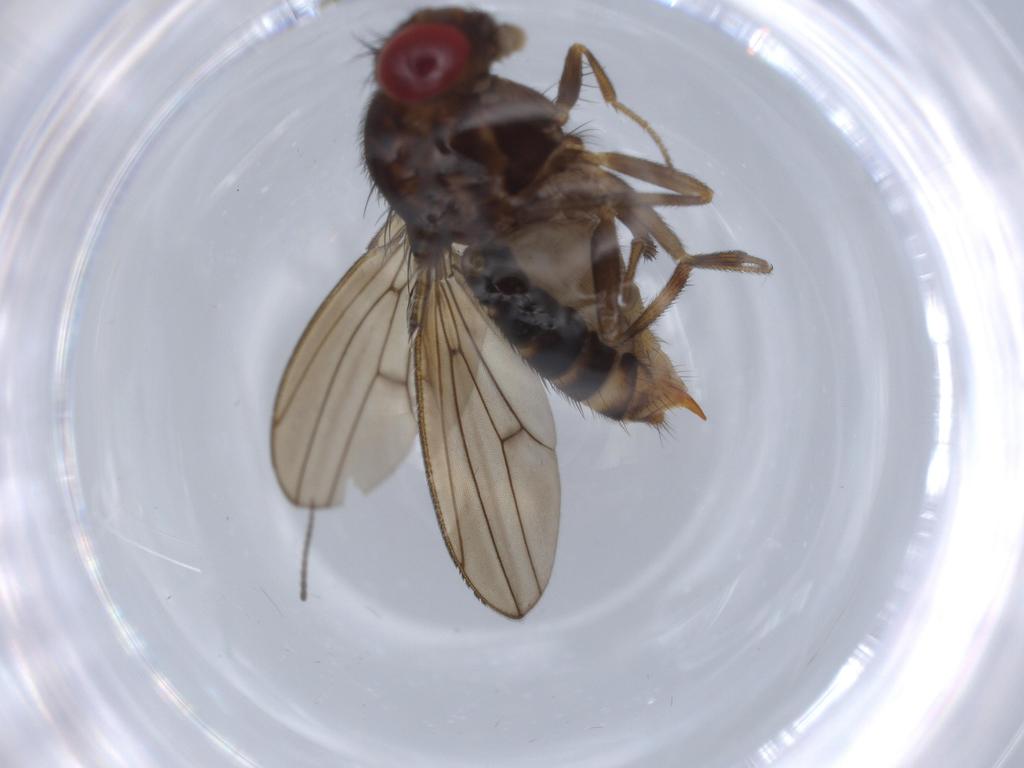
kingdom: Animalia
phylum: Arthropoda
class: Insecta
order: Diptera
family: Drosophilidae
